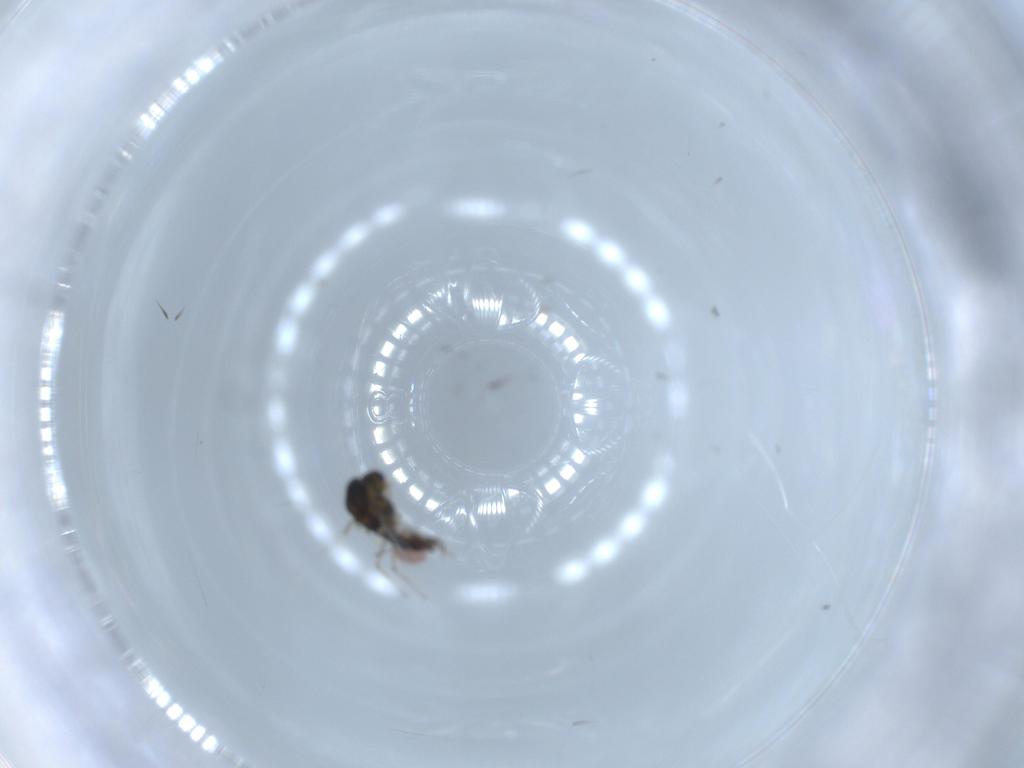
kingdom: Animalia
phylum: Arthropoda
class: Insecta
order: Diptera
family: Chironomidae
